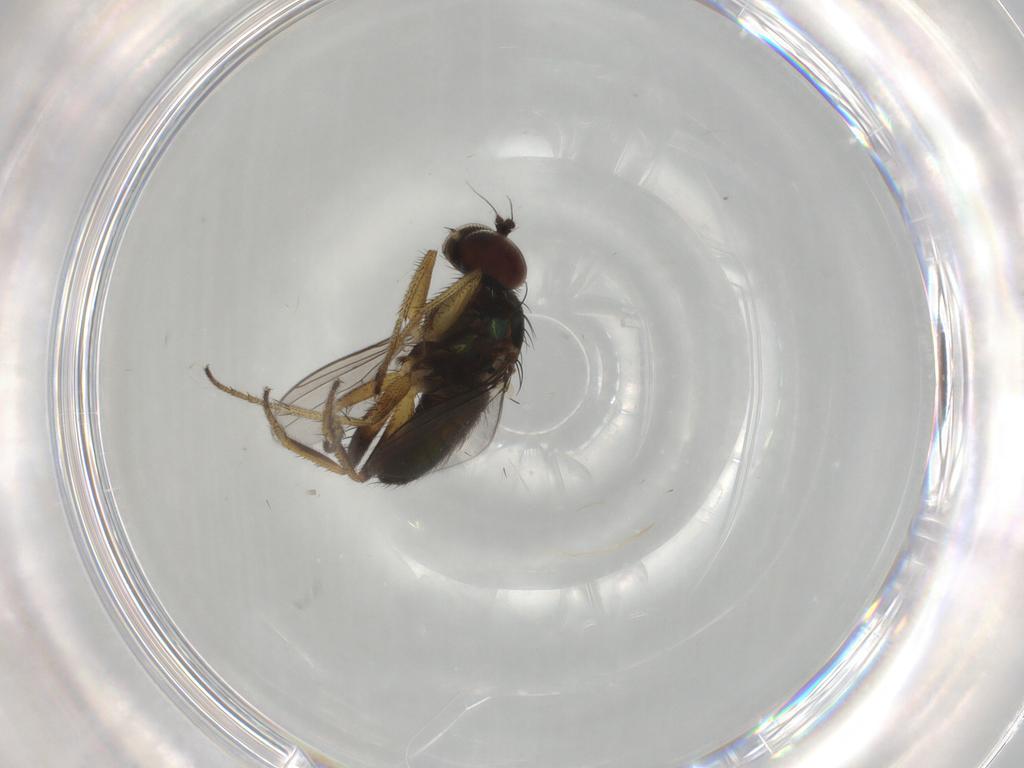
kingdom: Animalia
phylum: Arthropoda
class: Insecta
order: Diptera
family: Dolichopodidae
